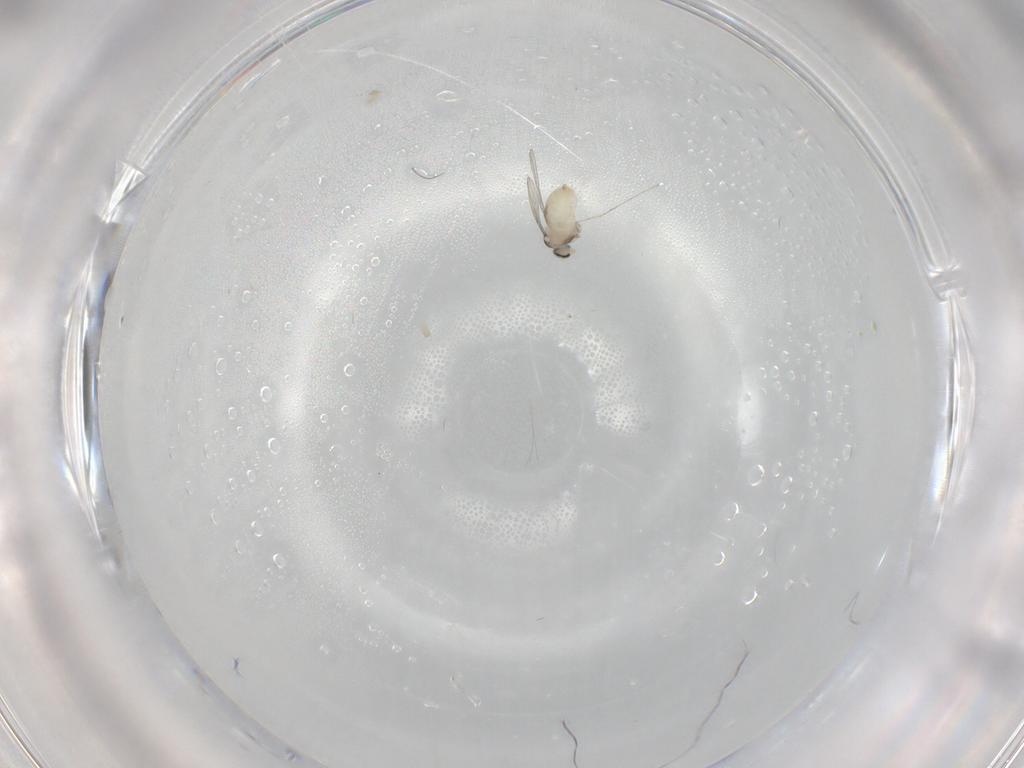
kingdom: Animalia
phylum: Arthropoda
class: Insecta
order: Diptera
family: Cecidomyiidae
